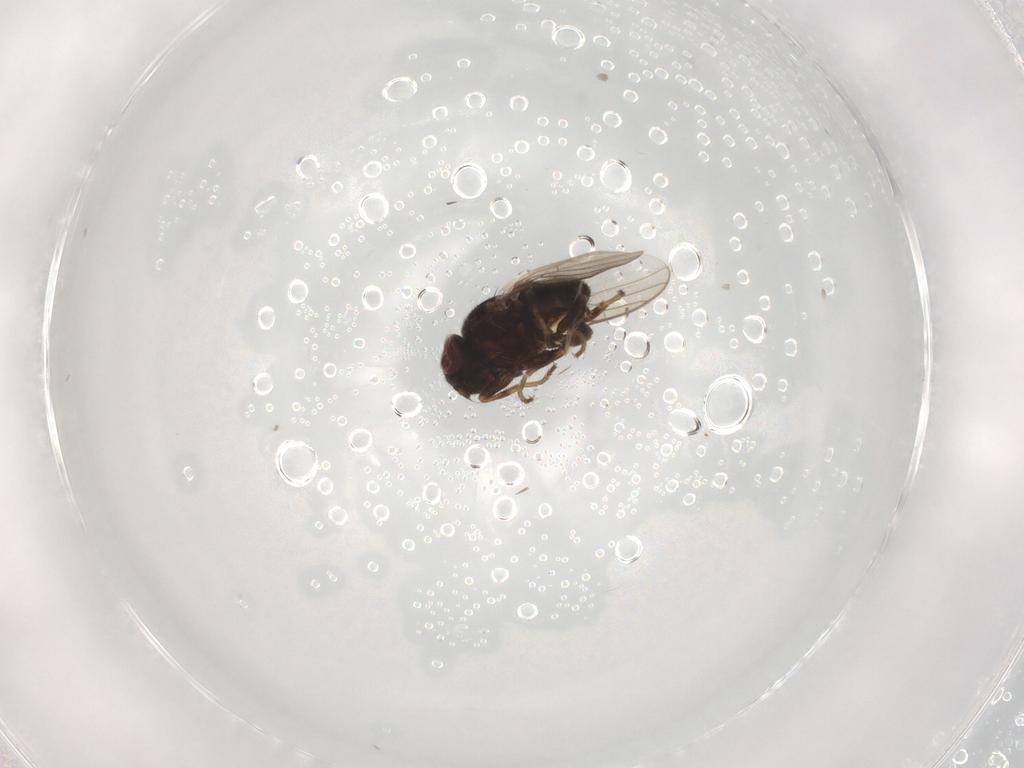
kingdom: Animalia
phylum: Arthropoda
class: Insecta
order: Diptera
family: Chloropidae
